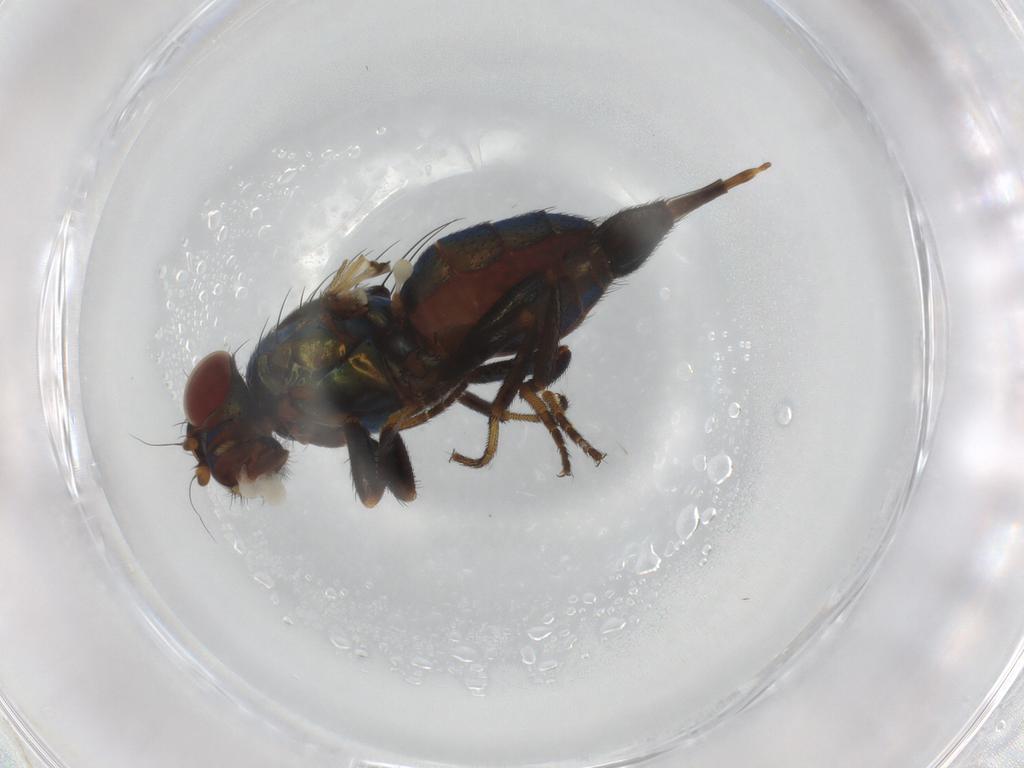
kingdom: Animalia
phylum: Arthropoda
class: Insecta
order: Diptera
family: Ulidiidae
